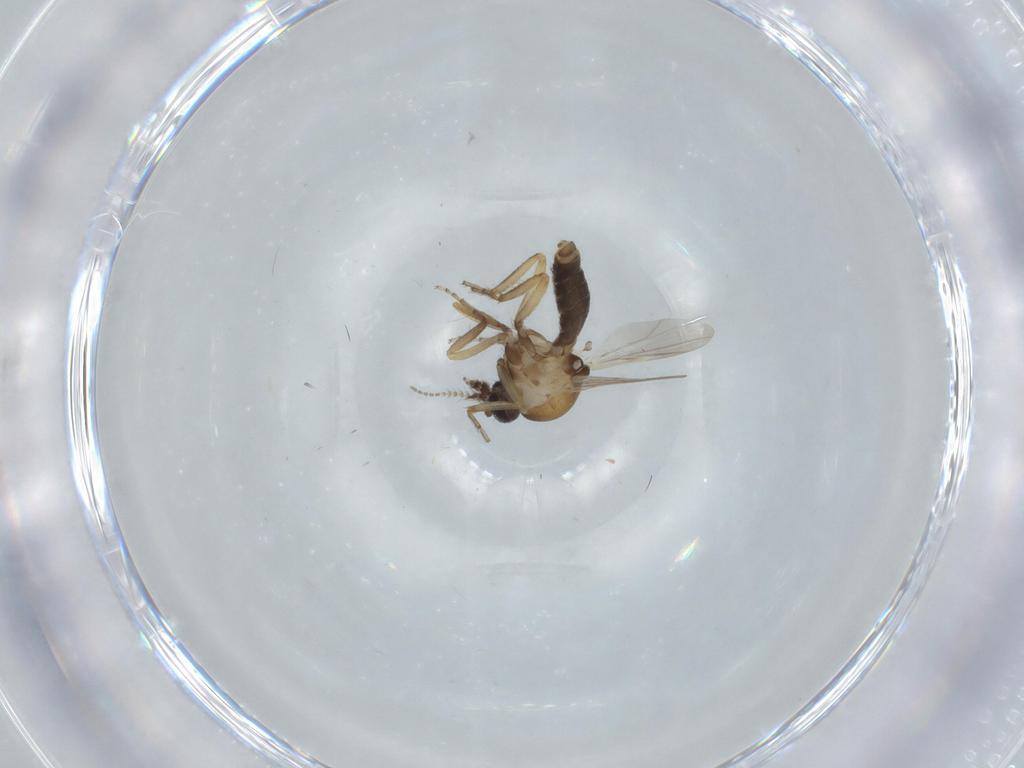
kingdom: Animalia
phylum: Arthropoda
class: Insecta
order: Diptera
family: Ceratopogonidae
